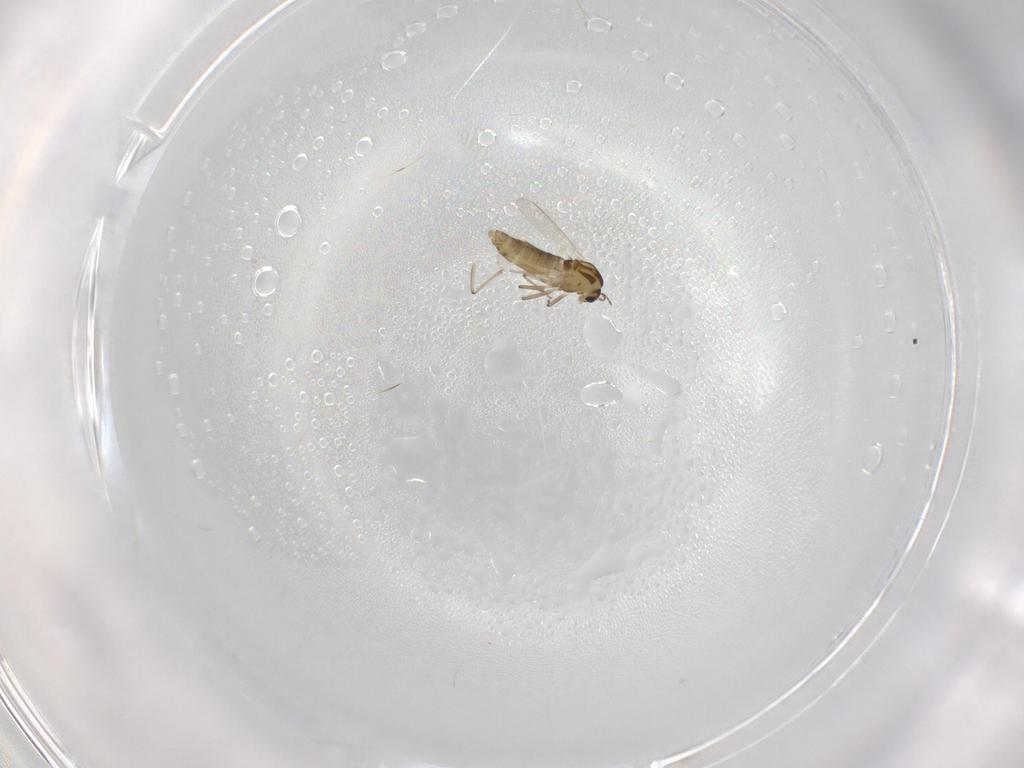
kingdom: Animalia
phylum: Arthropoda
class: Insecta
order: Diptera
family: Chironomidae
